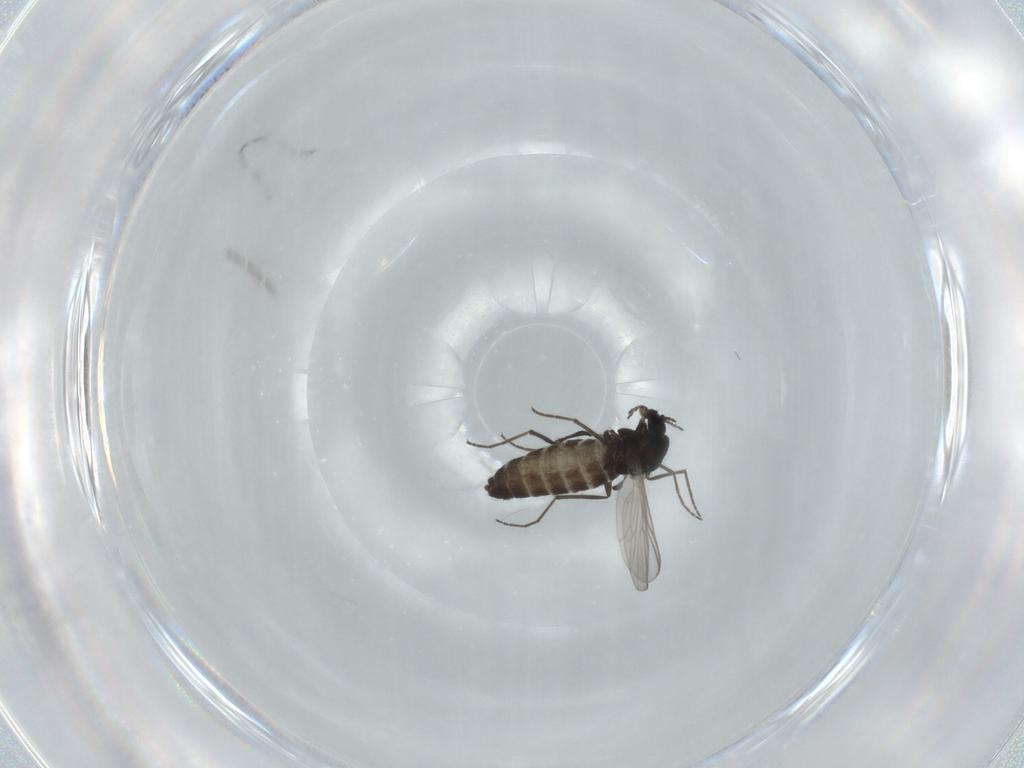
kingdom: Animalia
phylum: Arthropoda
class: Insecta
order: Diptera
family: Chironomidae
